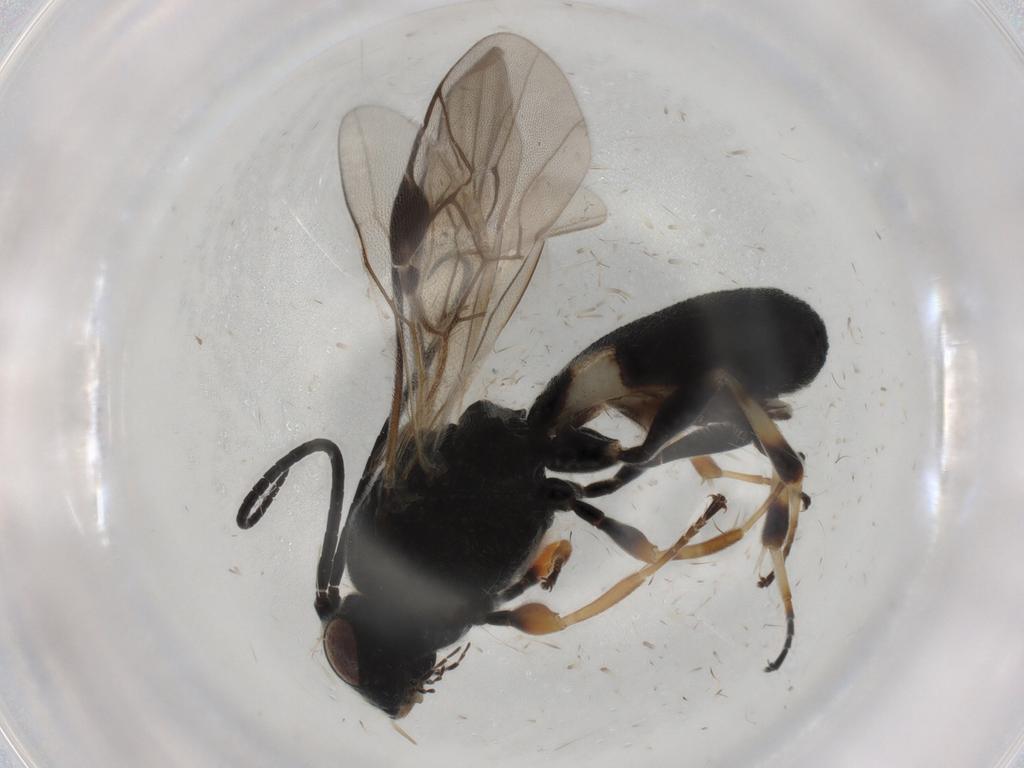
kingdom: Animalia
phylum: Arthropoda
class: Insecta
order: Hymenoptera
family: Braconidae
